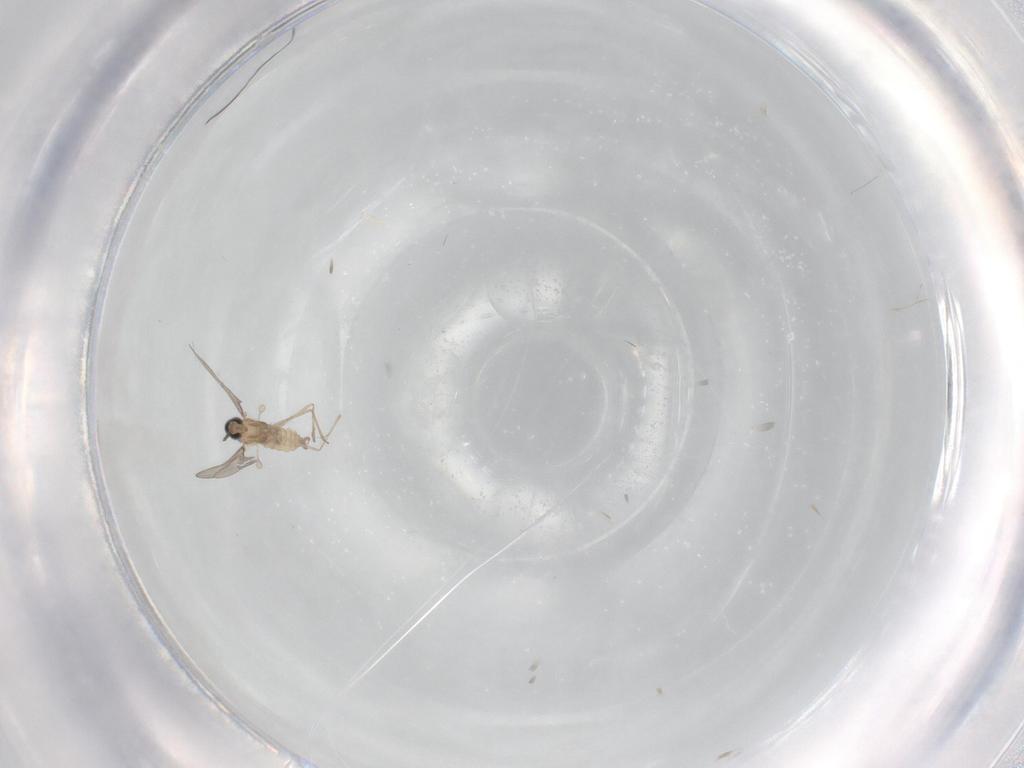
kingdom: Animalia
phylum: Arthropoda
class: Insecta
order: Diptera
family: Cecidomyiidae
